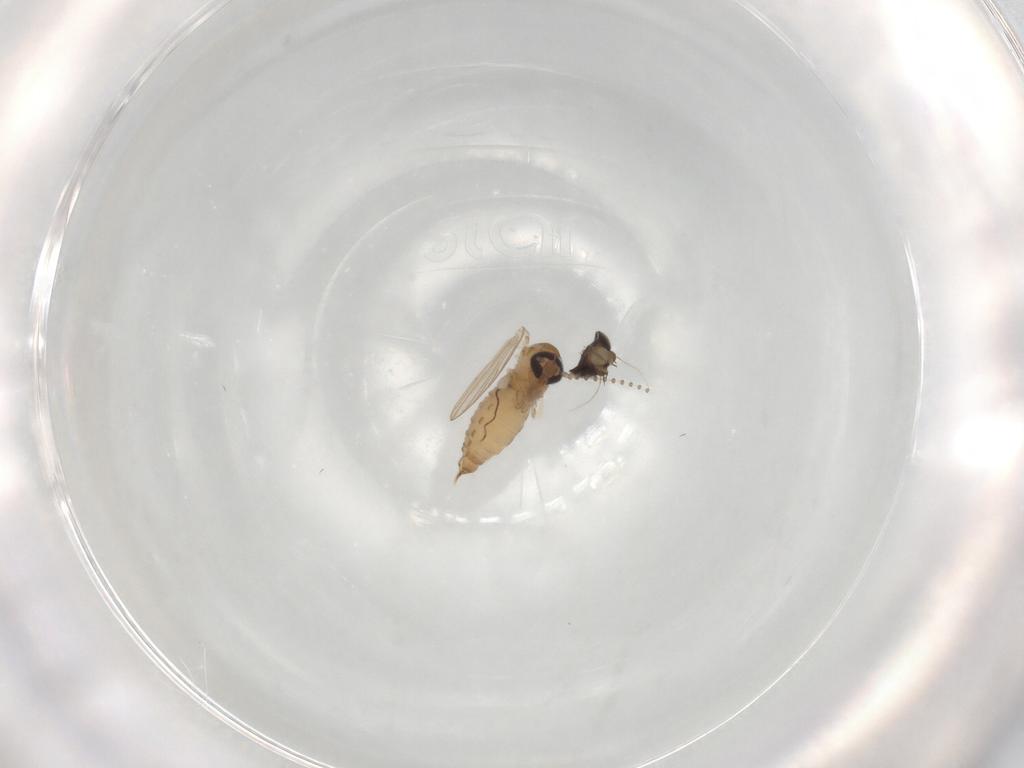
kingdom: Animalia
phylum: Arthropoda
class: Insecta
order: Diptera
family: Psychodidae
